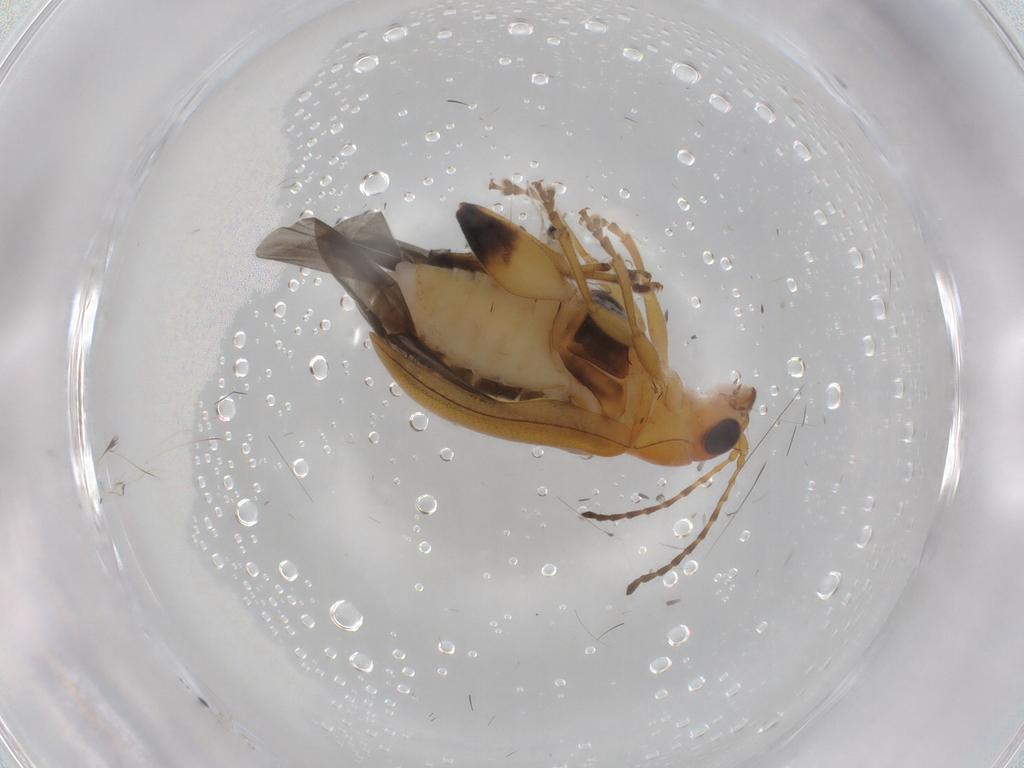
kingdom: Animalia
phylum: Arthropoda
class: Insecta
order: Coleoptera
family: Chrysomelidae
